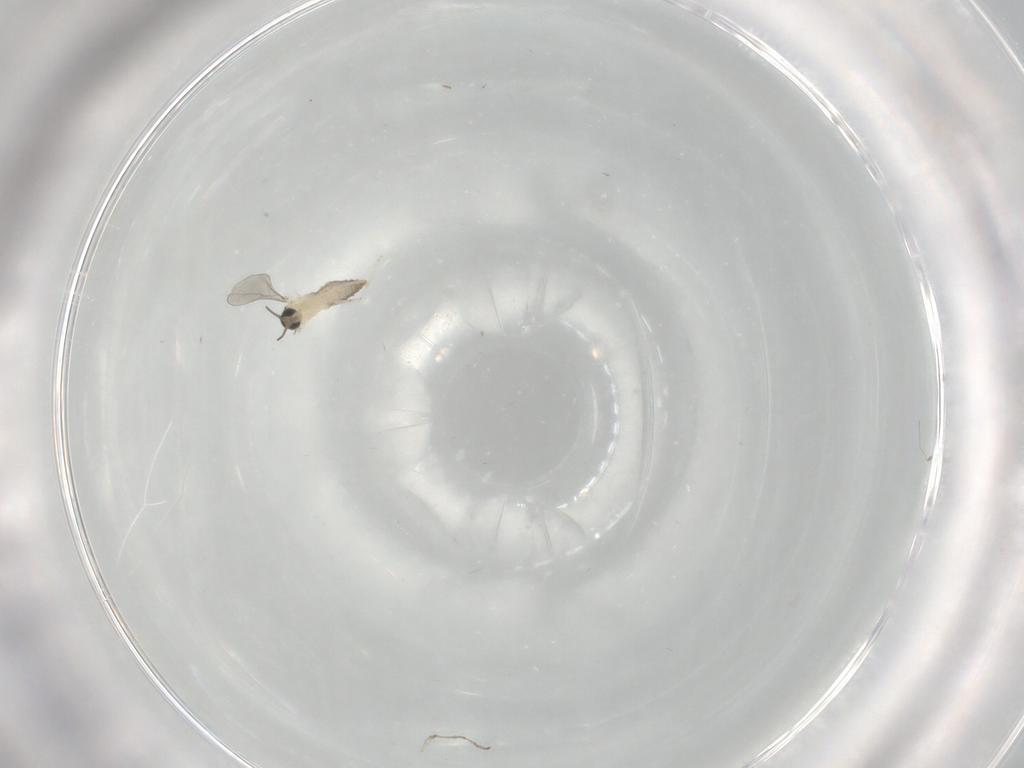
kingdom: Animalia
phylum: Arthropoda
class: Insecta
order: Diptera
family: Cecidomyiidae
